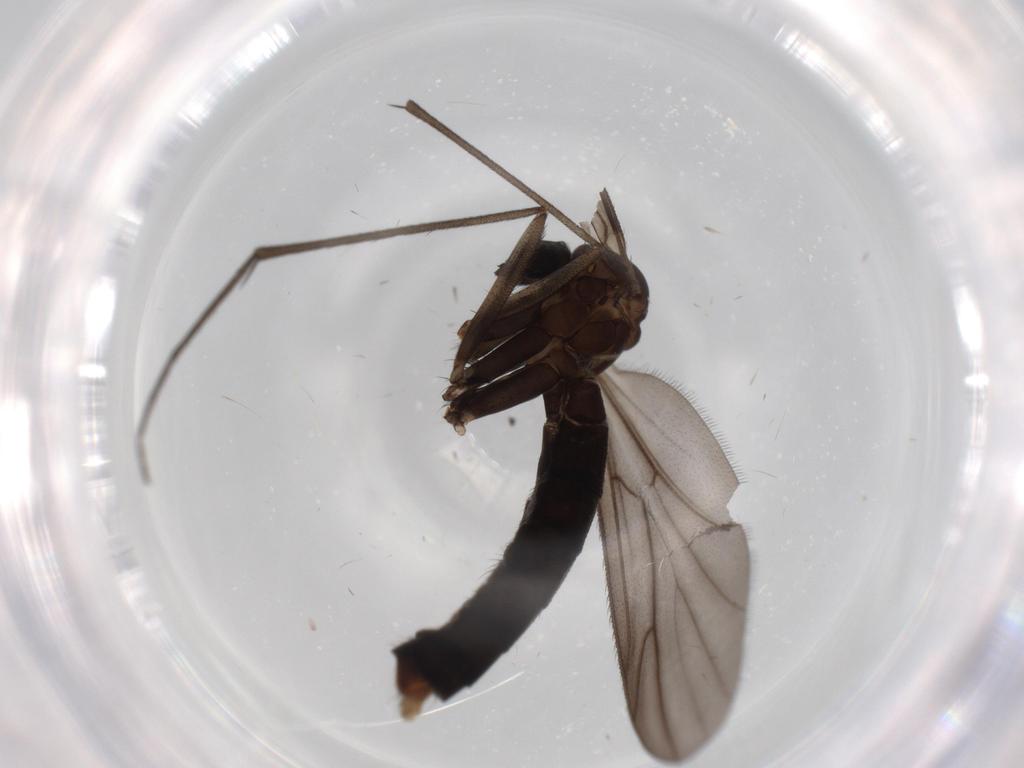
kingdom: Animalia
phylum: Arthropoda
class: Insecta
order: Diptera
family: Ditomyiidae
